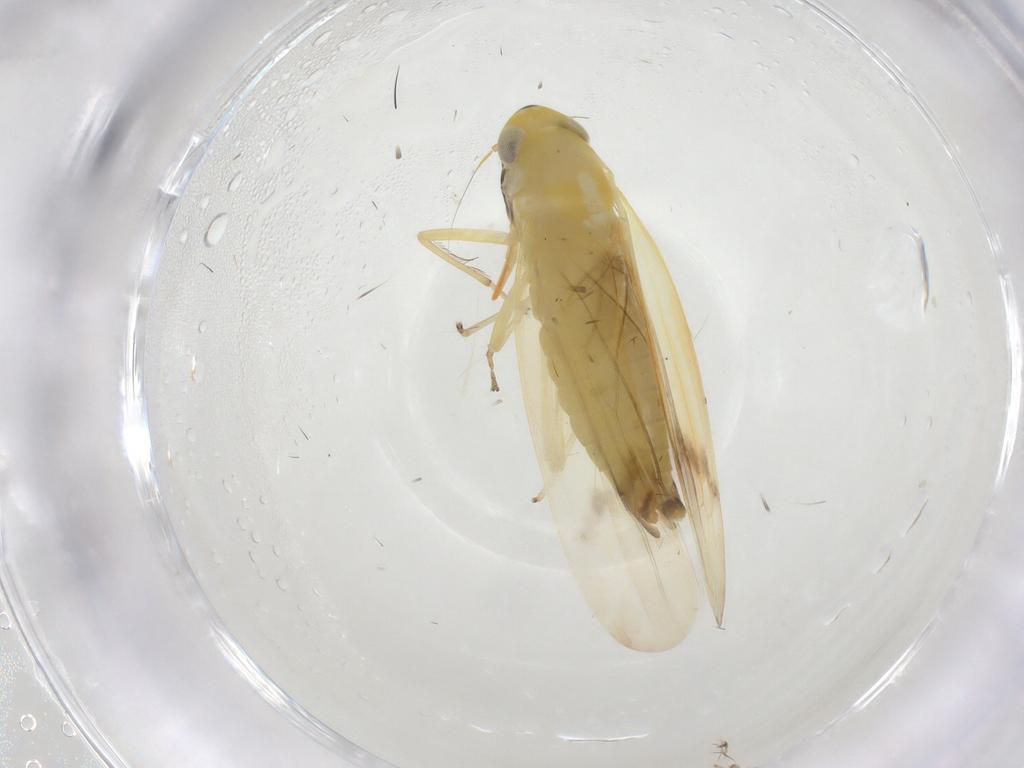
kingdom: Animalia
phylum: Arthropoda
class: Insecta
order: Hemiptera
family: Cicadellidae
